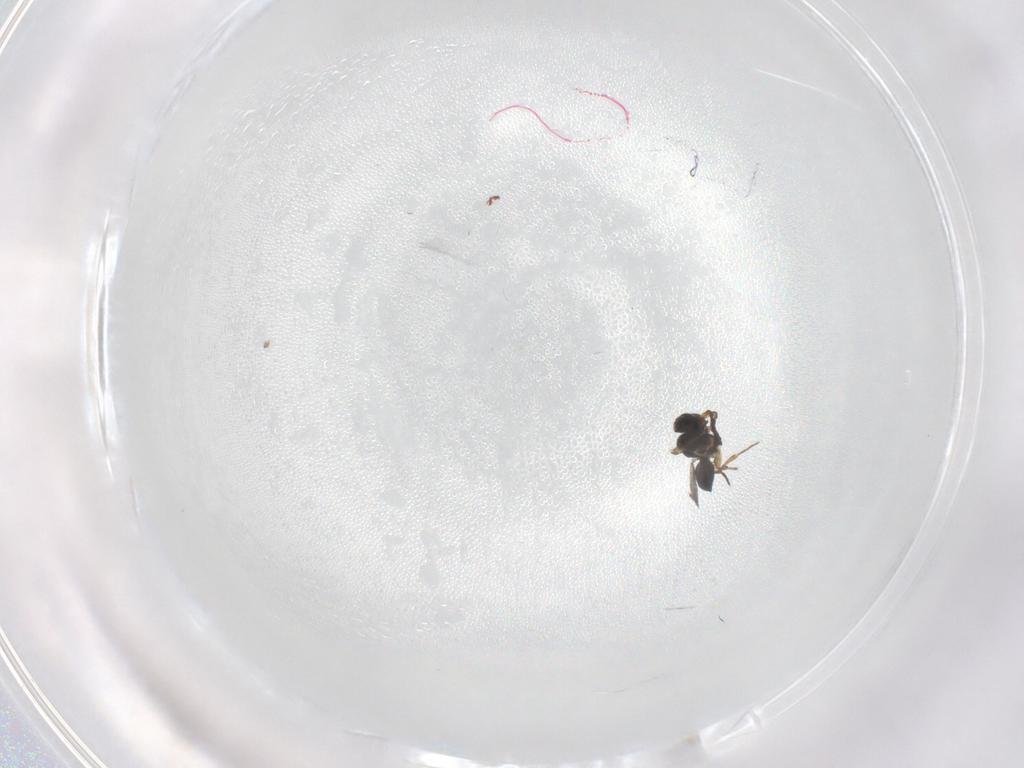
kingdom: Animalia
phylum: Arthropoda
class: Insecta
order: Hymenoptera
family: Scelionidae
